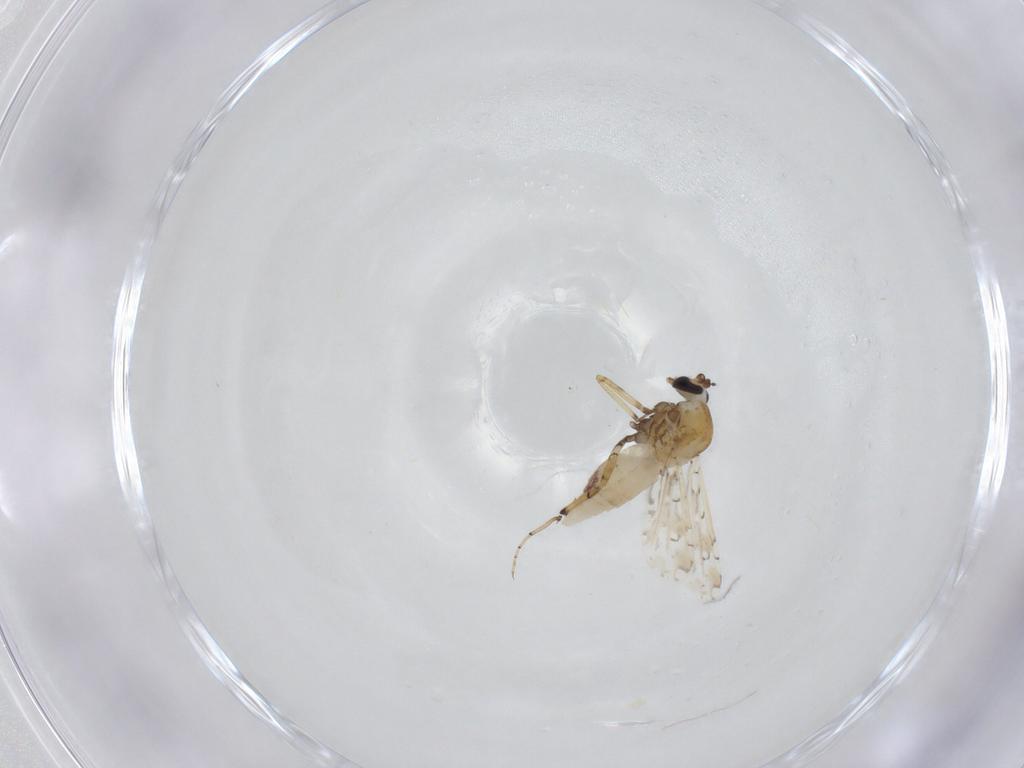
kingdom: Animalia
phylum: Arthropoda
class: Insecta
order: Diptera
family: Ceratopogonidae
